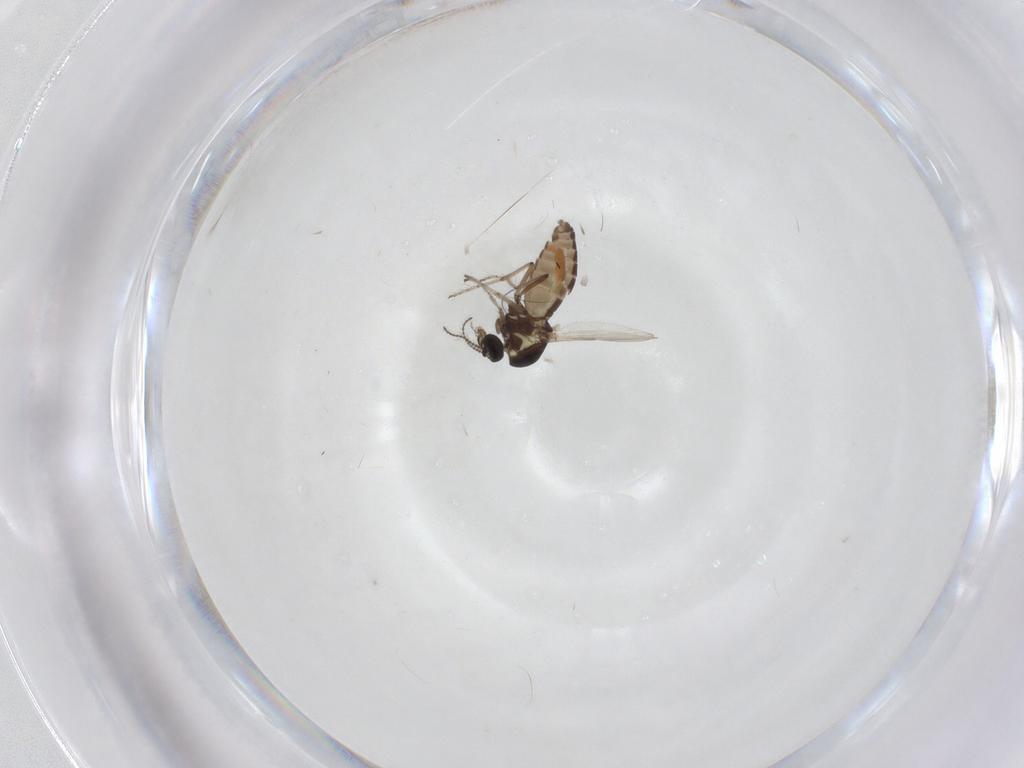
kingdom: Animalia
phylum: Arthropoda
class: Insecta
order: Diptera
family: Ceratopogonidae
